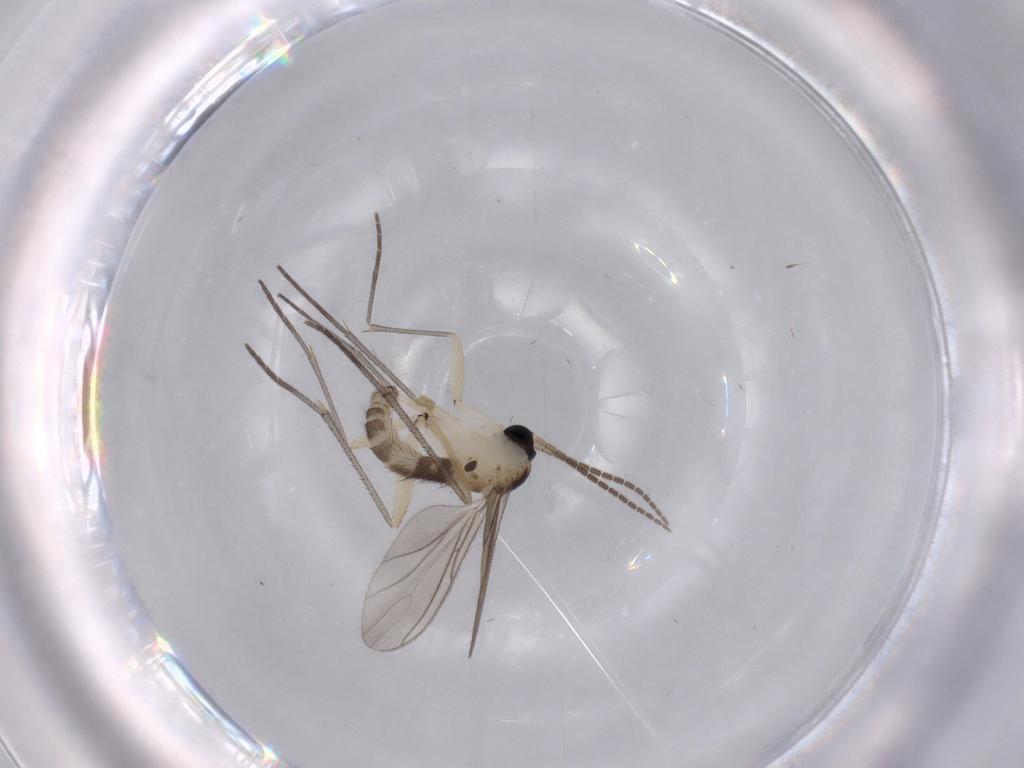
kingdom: Animalia
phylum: Arthropoda
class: Insecta
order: Diptera
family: Sciaridae
